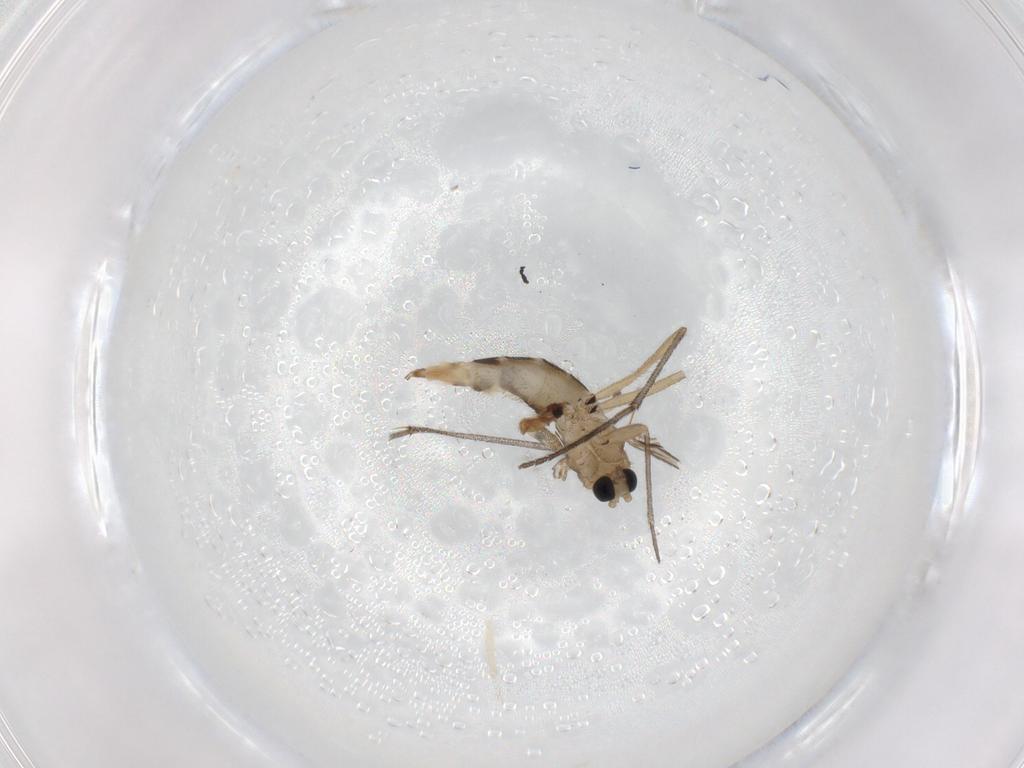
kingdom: Animalia
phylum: Arthropoda
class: Insecta
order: Diptera
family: Sciaridae
